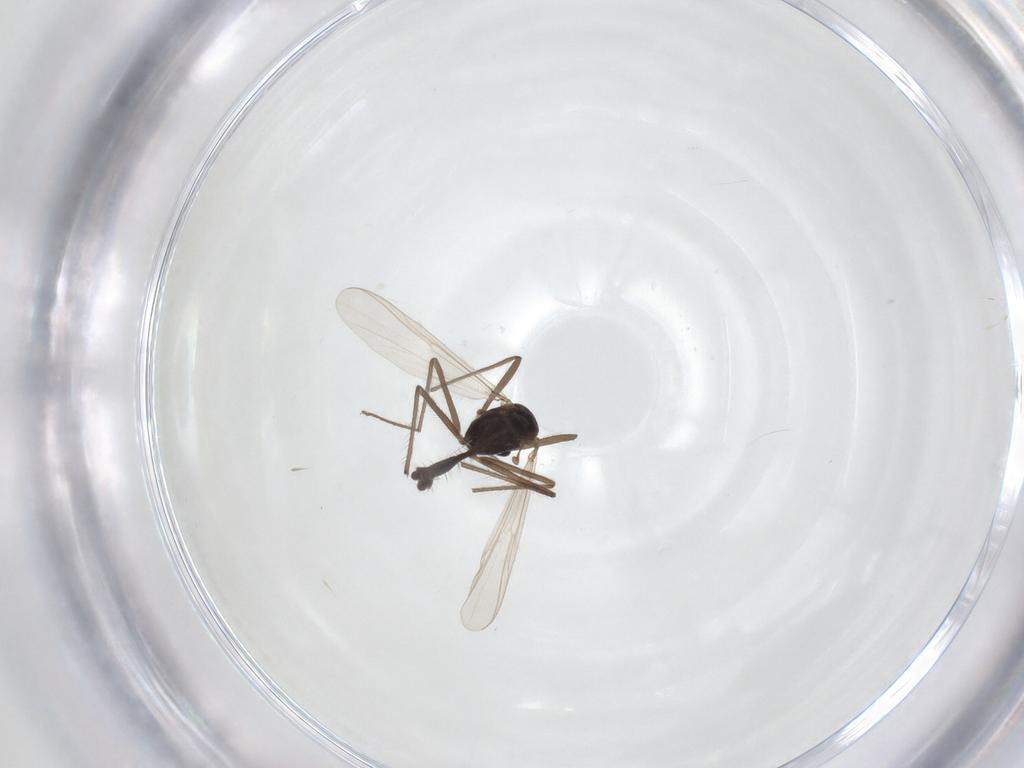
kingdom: Animalia
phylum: Arthropoda
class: Insecta
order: Diptera
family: Chironomidae
